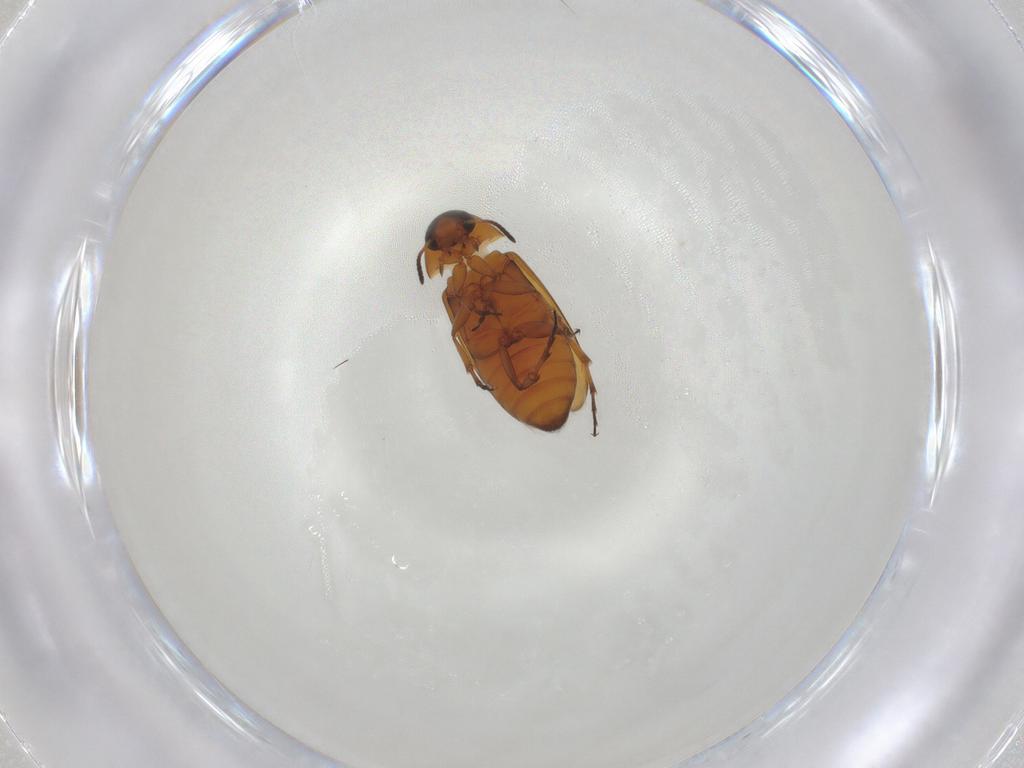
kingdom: Animalia
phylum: Arthropoda
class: Insecta
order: Coleoptera
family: Scraptiidae
